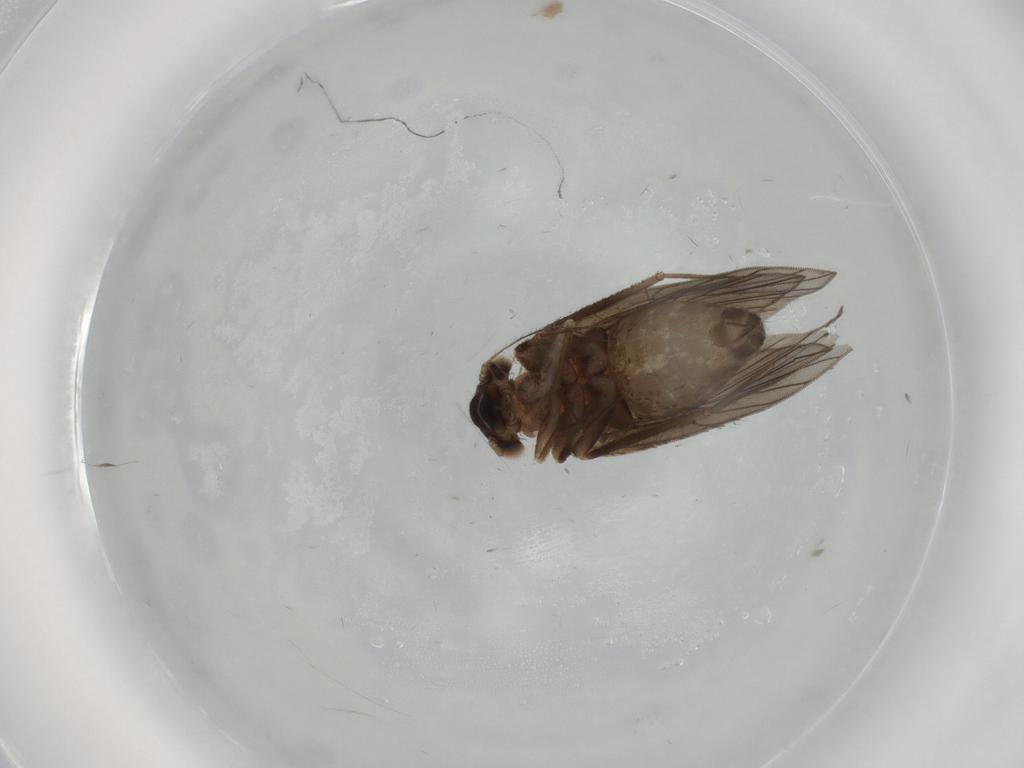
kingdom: Animalia
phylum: Arthropoda
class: Insecta
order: Psocodea
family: Lepidopsocidae
